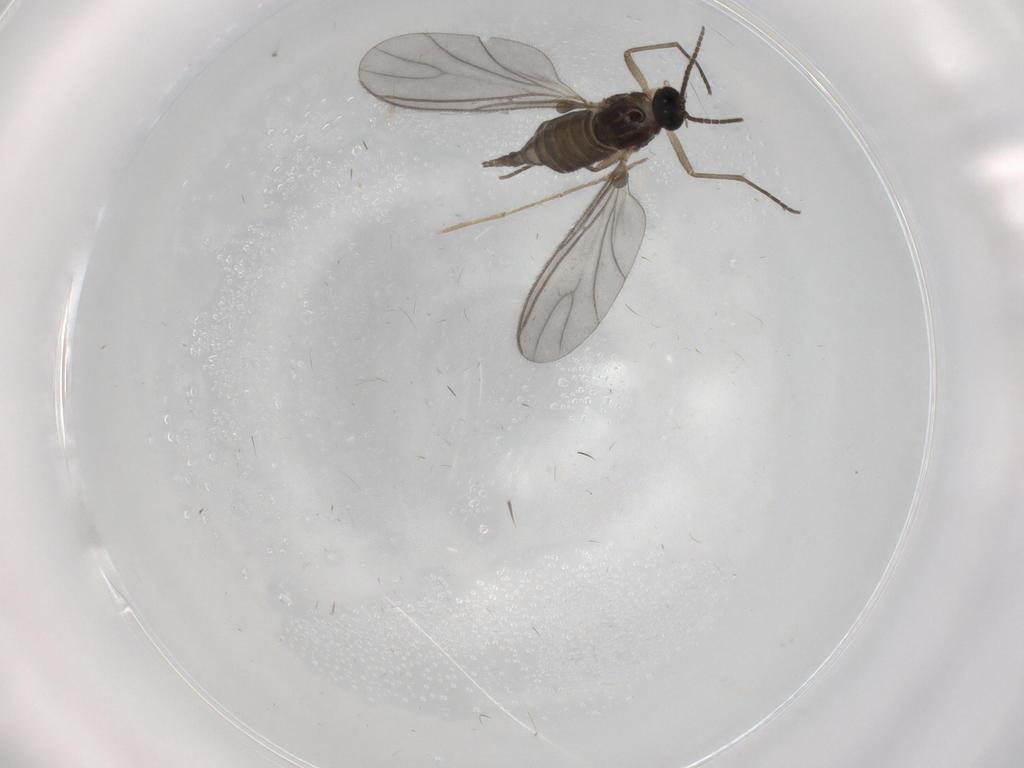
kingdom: Animalia
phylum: Arthropoda
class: Insecta
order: Diptera
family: Sciaridae
